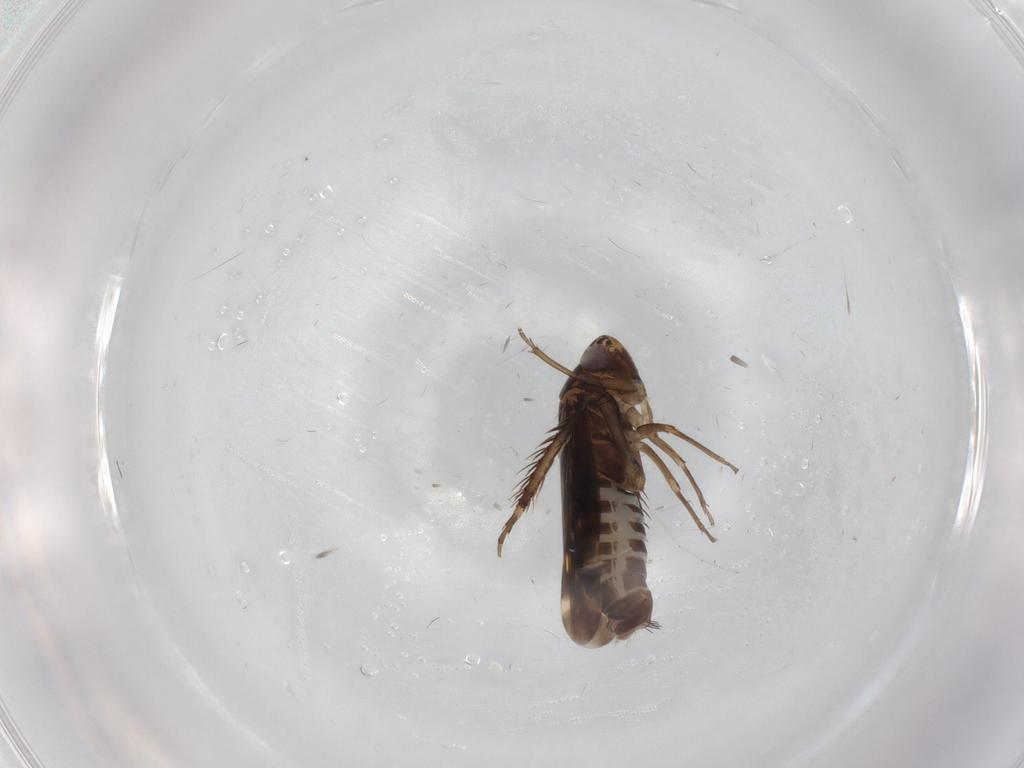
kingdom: Animalia
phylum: Arthropoda
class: Insecta
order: Hemiptera
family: Cicadellidae
